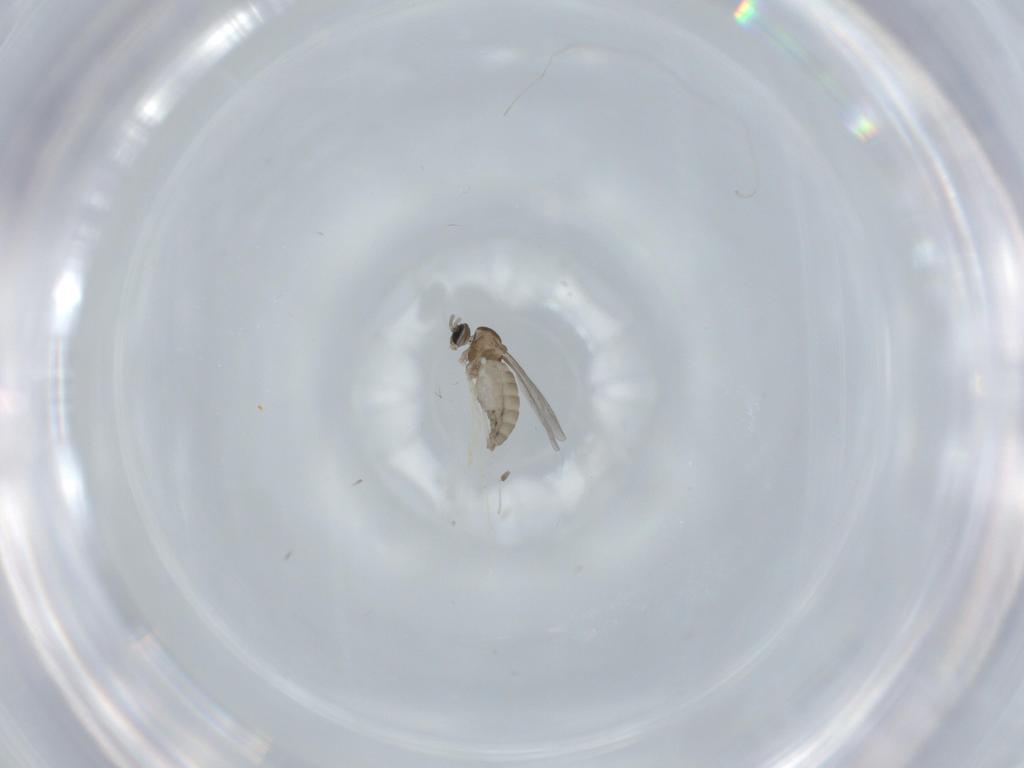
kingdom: Animalia
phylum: Arthropoda
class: Insecta
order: Diptera
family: Cecidomyiidae
